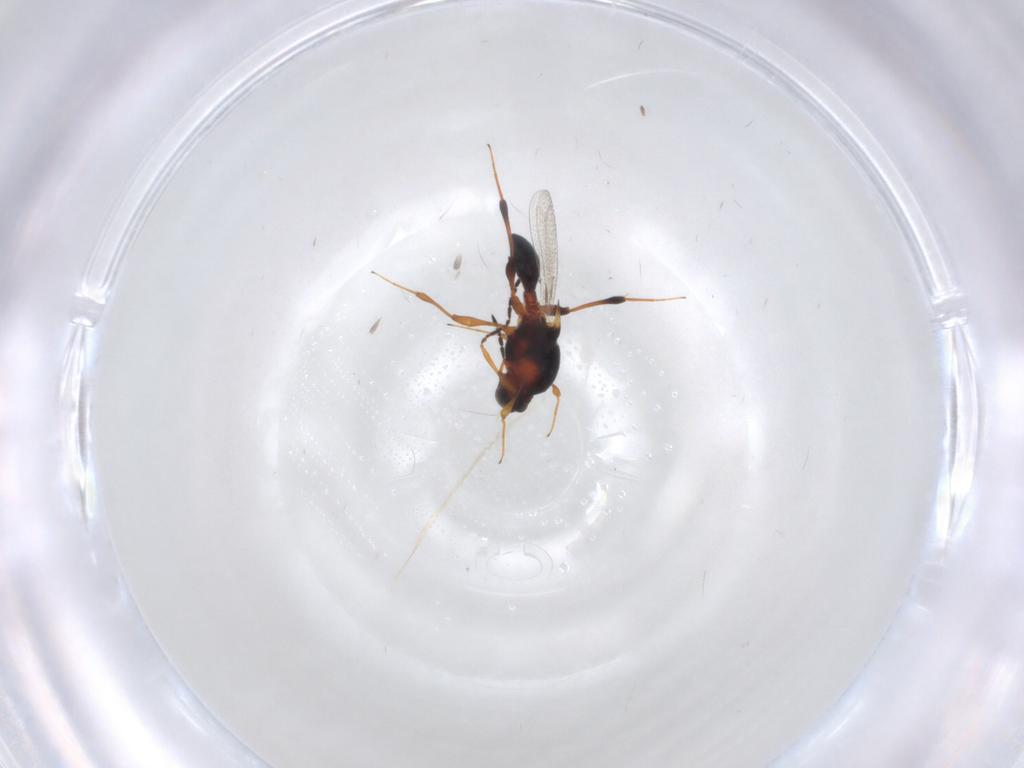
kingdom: Animalia
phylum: Arthropoda
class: Insecta
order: Hymenoptera
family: Platygastridae
